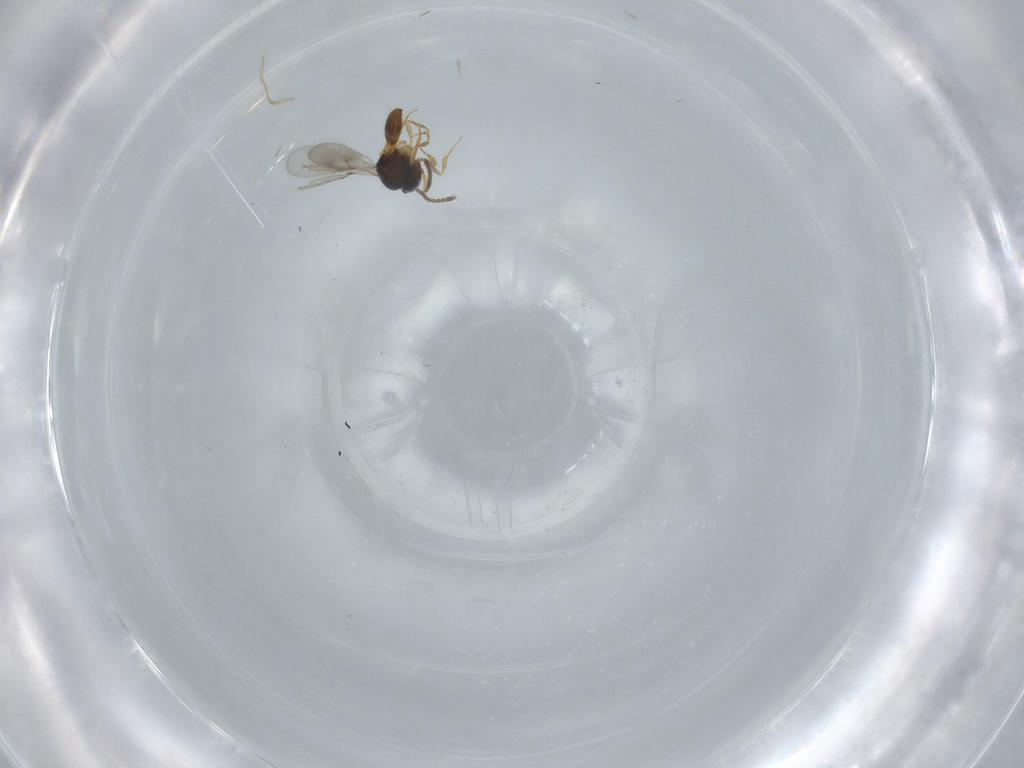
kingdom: Animalia
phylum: Arthropoda
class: Insecta
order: Hymenoptera
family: Scelionidae
